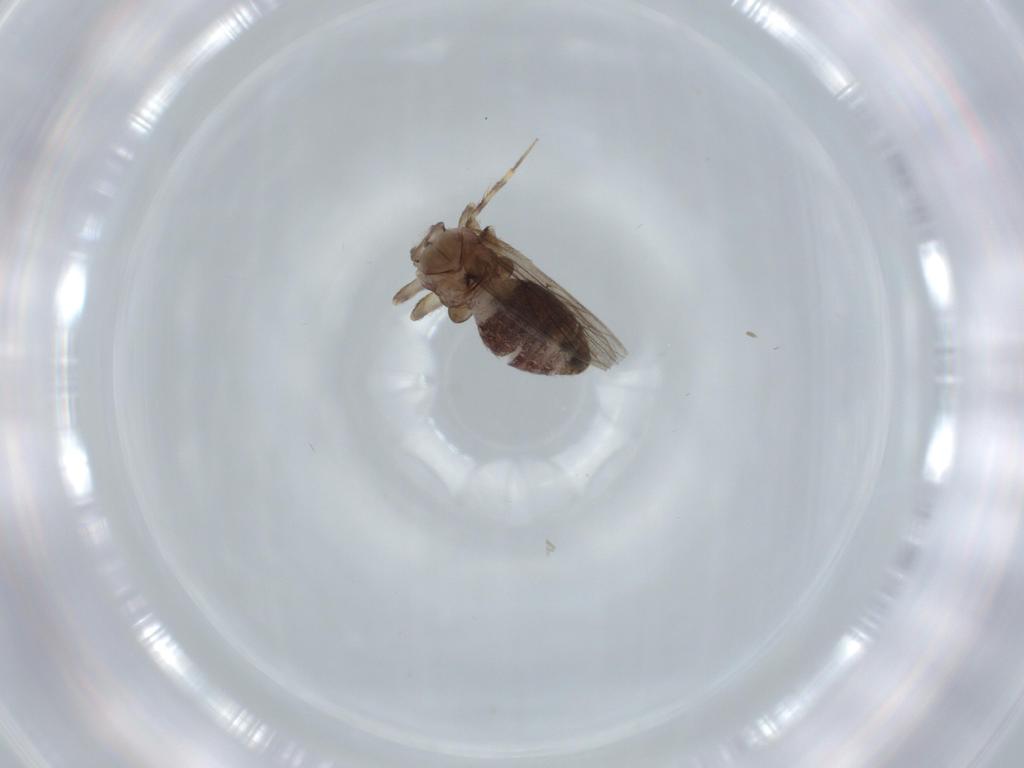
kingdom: Animalia
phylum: Arthropoda
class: Insecta
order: Psocodea
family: Lepidopsocidae
